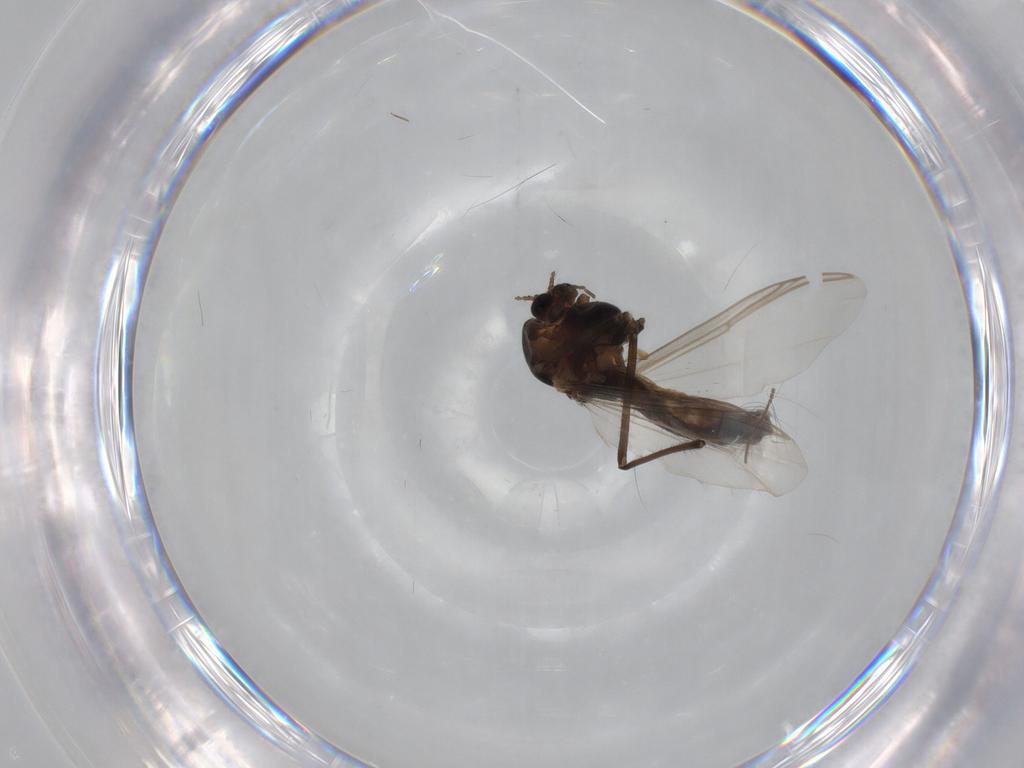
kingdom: Animalia
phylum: Arthropoda
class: Insecta
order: Diptera
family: Chironomidae
